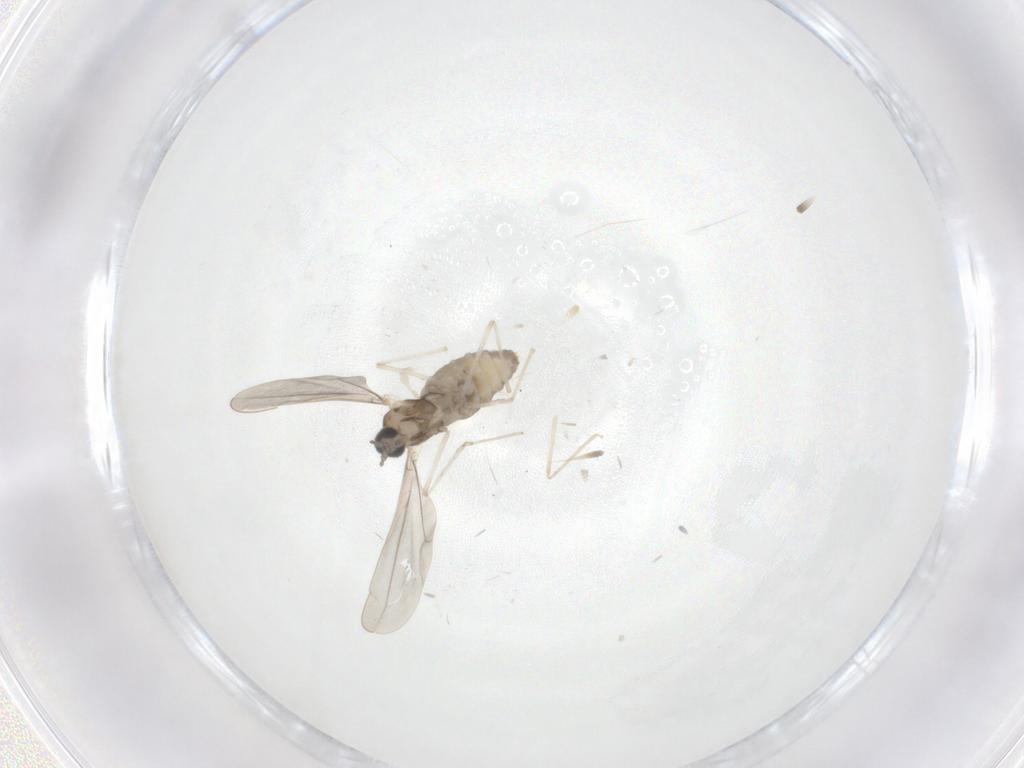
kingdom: Animalia
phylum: Arthropoda
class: Insecta
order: Diptera
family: Cecidomyiidae
